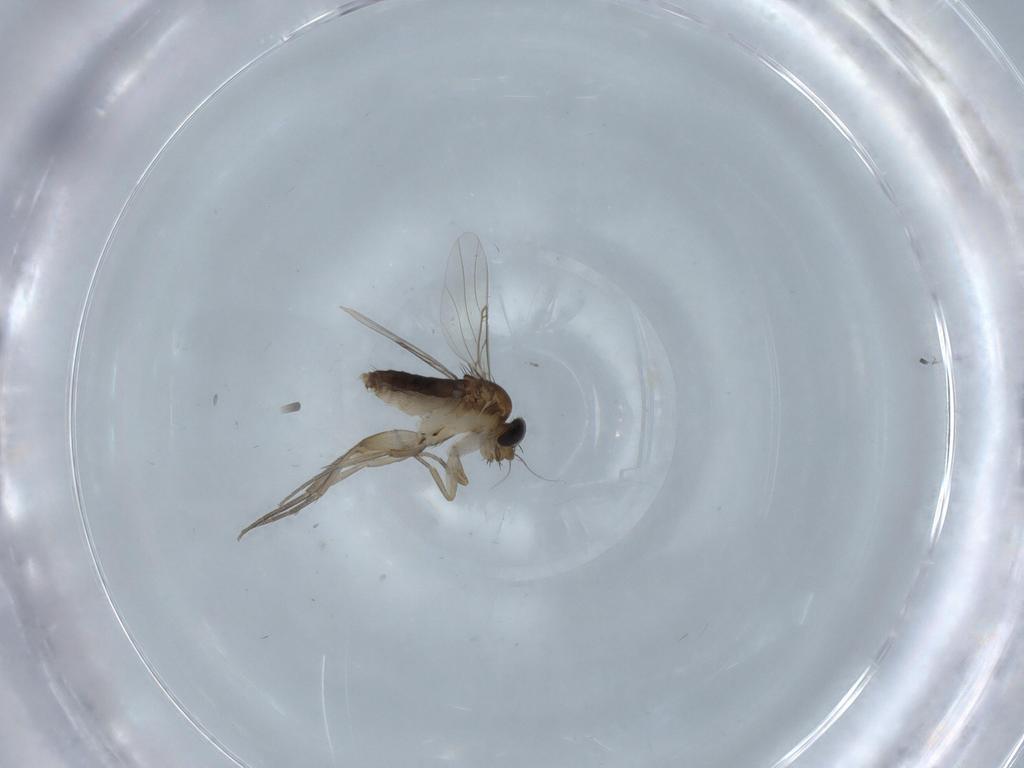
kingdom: Animalia
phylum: Arthropoda
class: Insecta
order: Diptera
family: Phoridae
